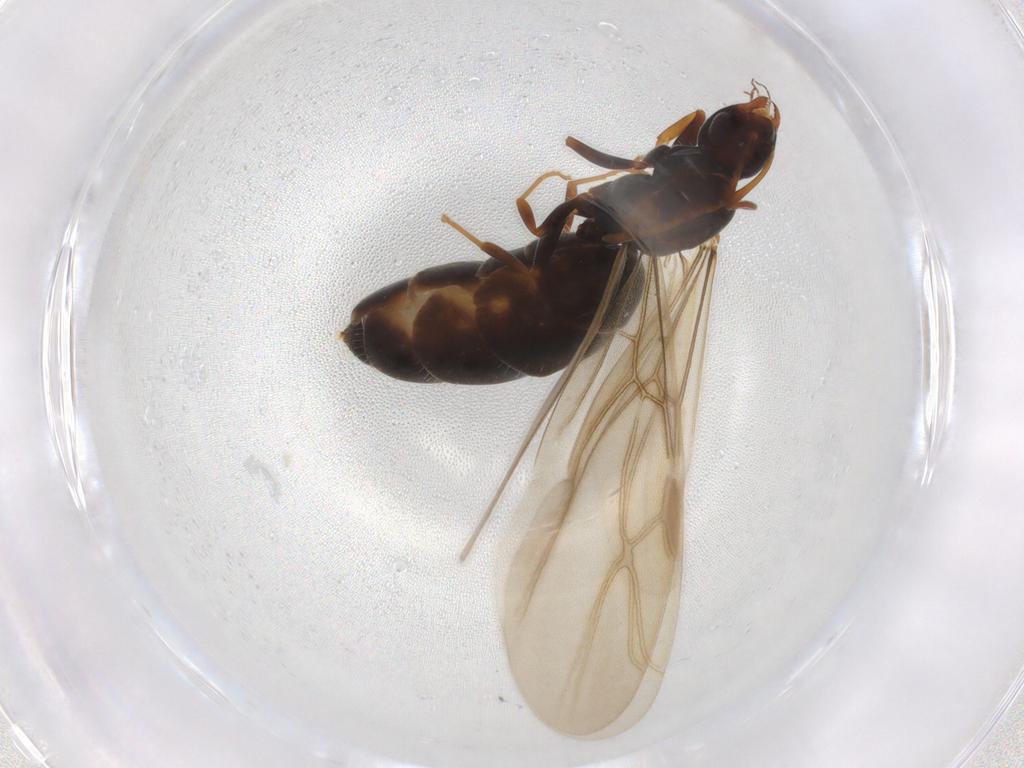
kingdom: Animalia
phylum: Arthropoda
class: Insecta
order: Hymenoptera
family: Formicidae
